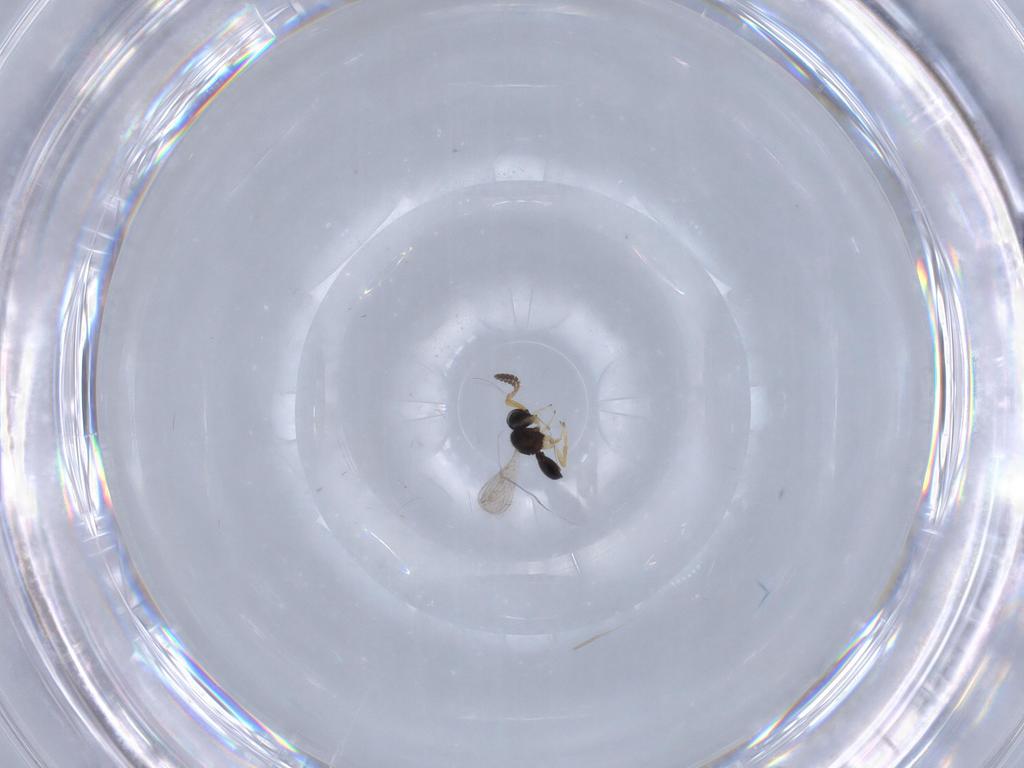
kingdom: Animalia
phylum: Arthropoda
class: Insecta
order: Hymenoptera
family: Scelionidae
